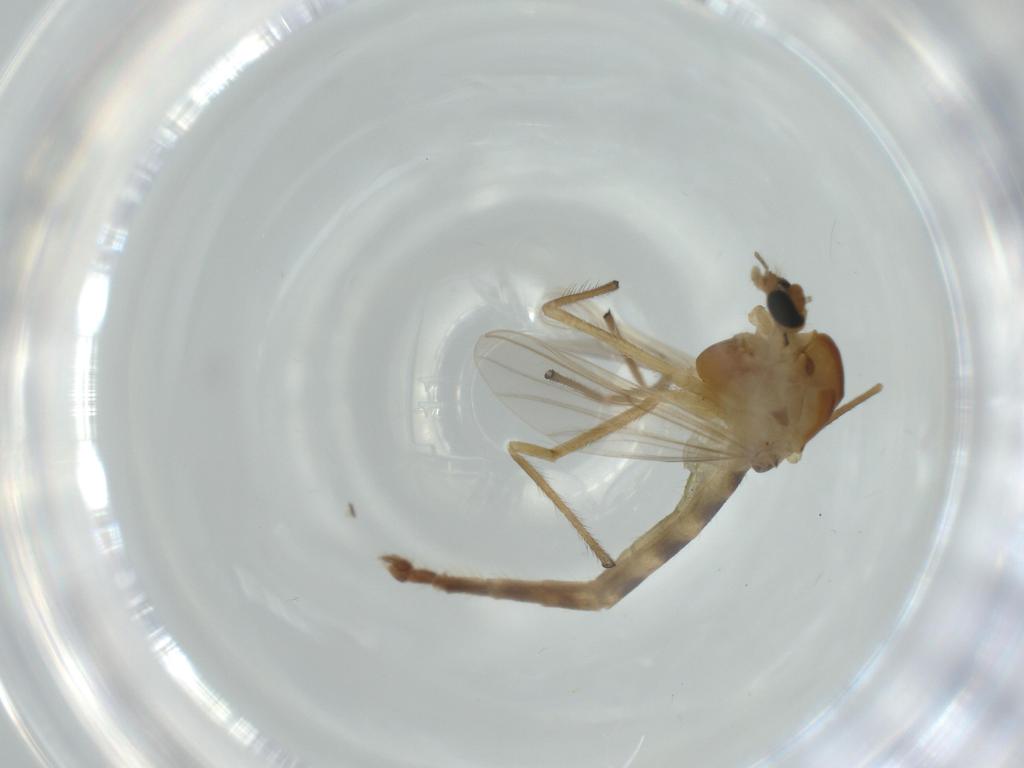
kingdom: Animalia
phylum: Arthropoda
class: Insecta
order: Diptera
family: Chironomidae
